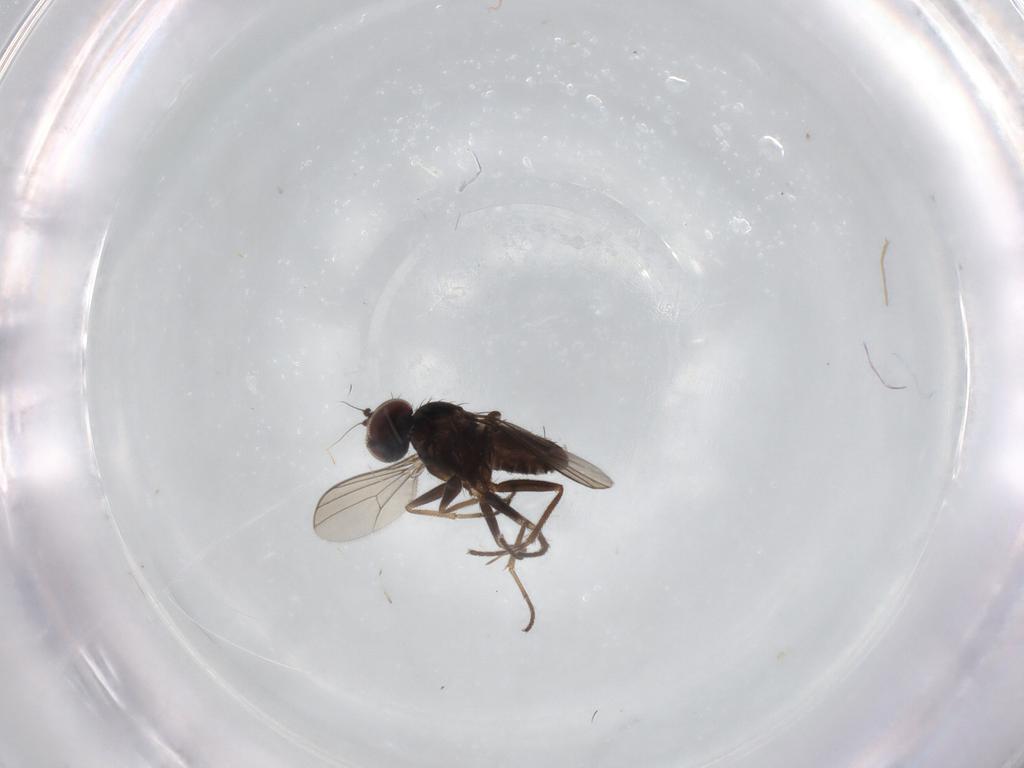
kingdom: Animalia
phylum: Arthropoda
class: Insecta
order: Diptera
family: Dolichopodidae
